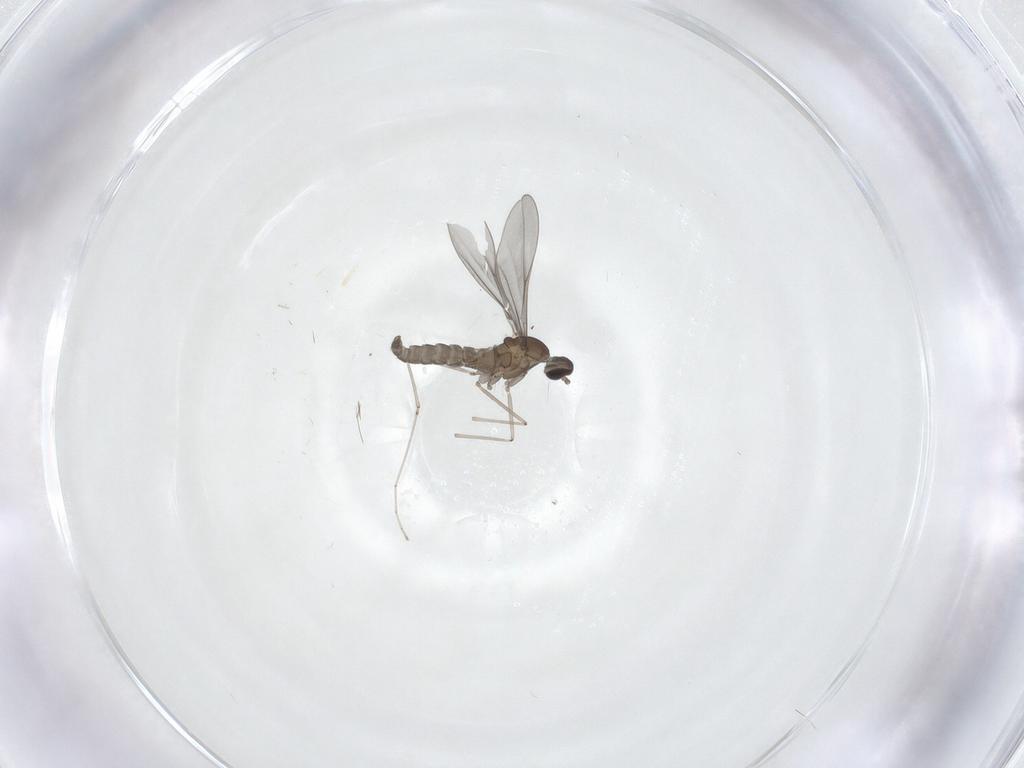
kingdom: Animalia
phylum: Arthropoda
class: Insecta
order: Diptera
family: Cecidomyiidae
